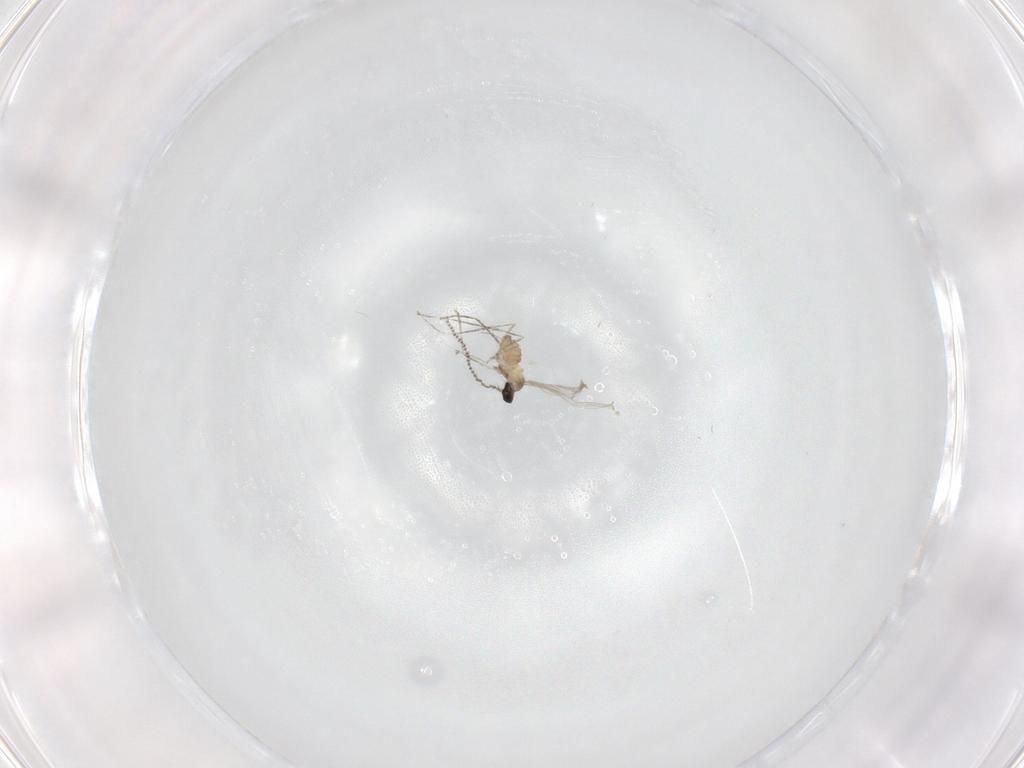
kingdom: Animalia
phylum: Arthropoda
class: Insecta
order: Diptera
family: Cecidomyiidae
